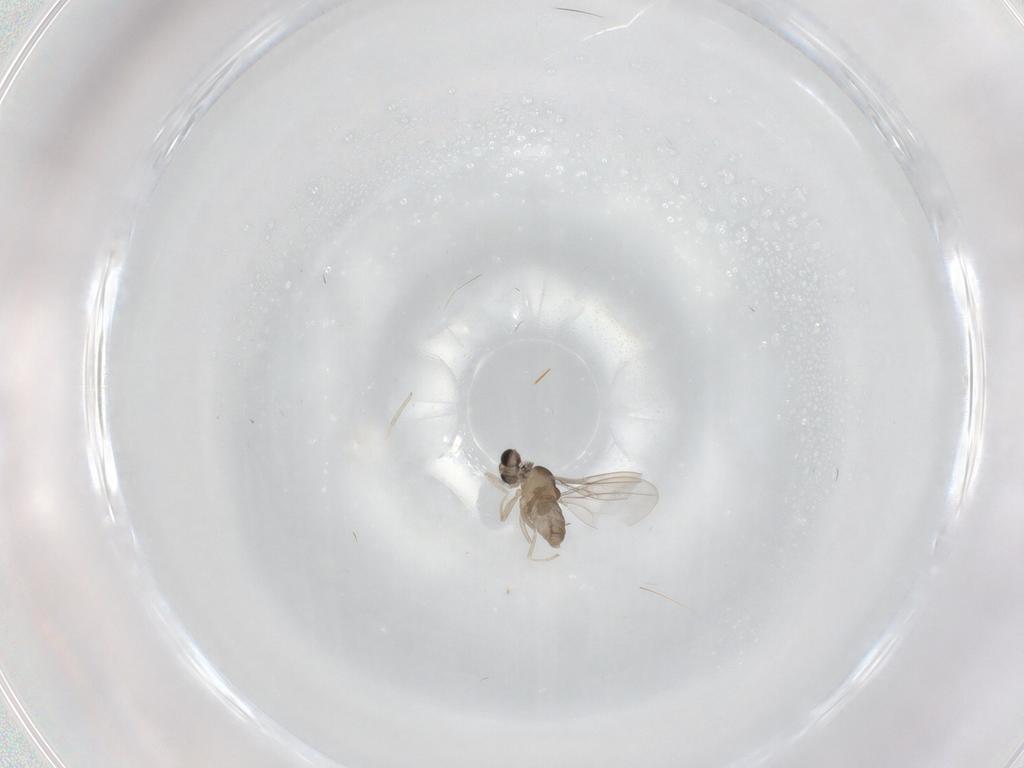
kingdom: Animalia
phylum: Arthropoda
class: Insecta
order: Diptera
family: Cecidomyiidae
